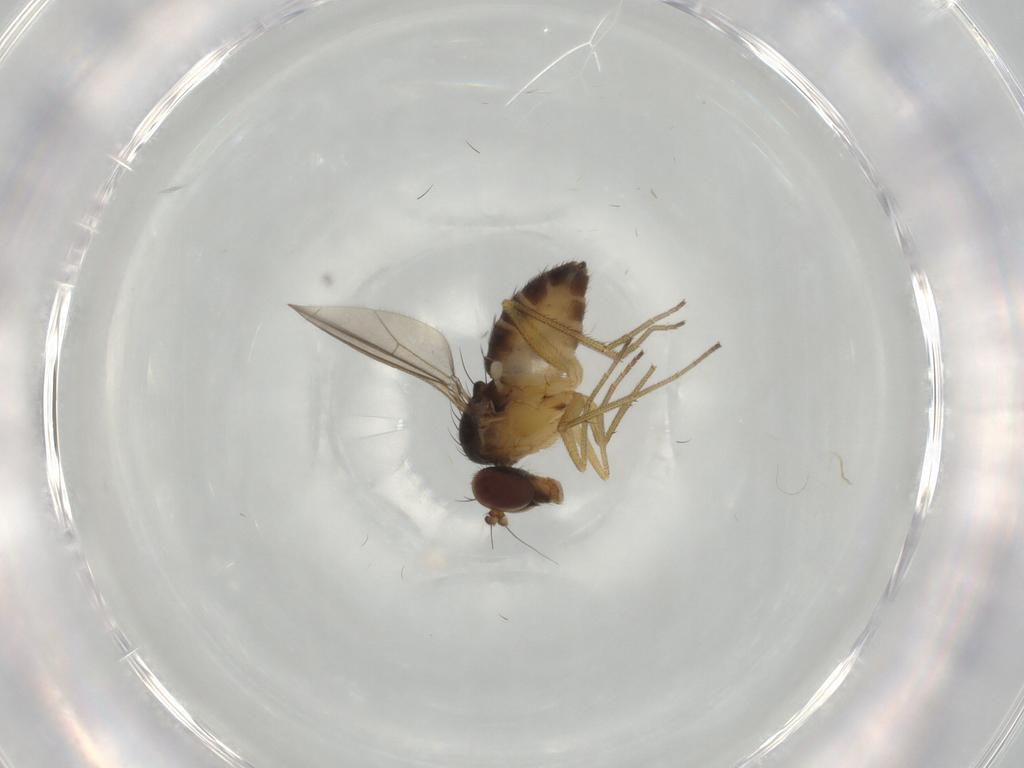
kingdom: Animalia
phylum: Arthropoda
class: Insecta
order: Diptera
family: Dolichopodidae
